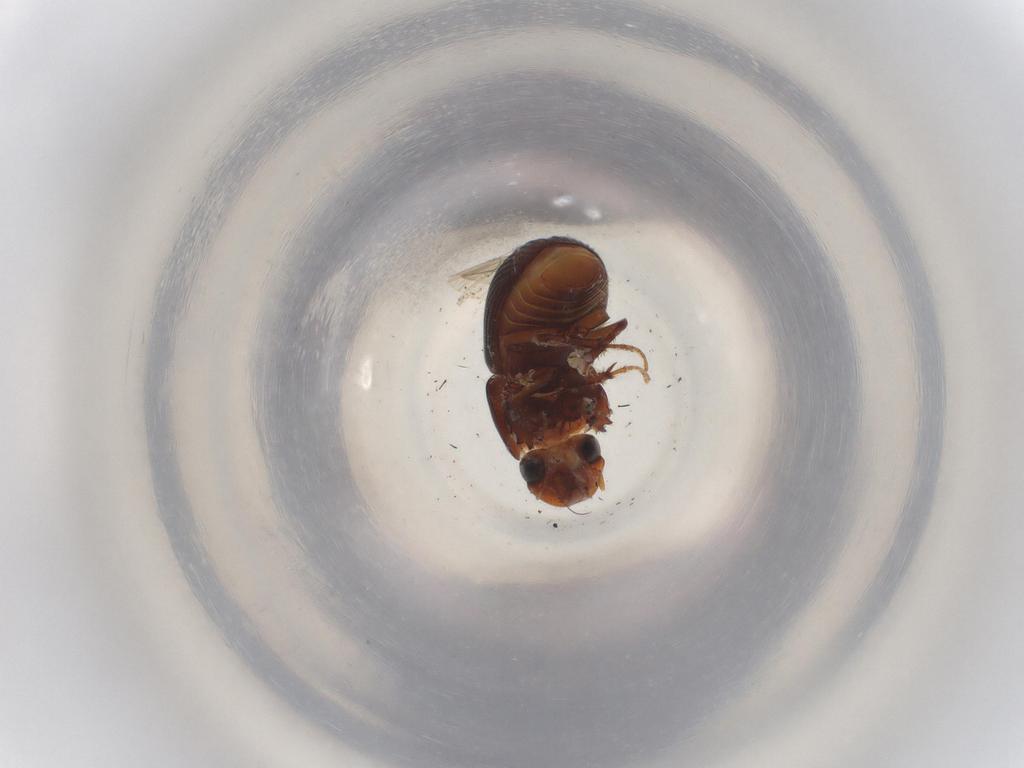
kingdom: Animalia
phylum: Arthropoda
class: Insecta
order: Coleoptera
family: Scarabaeidae
